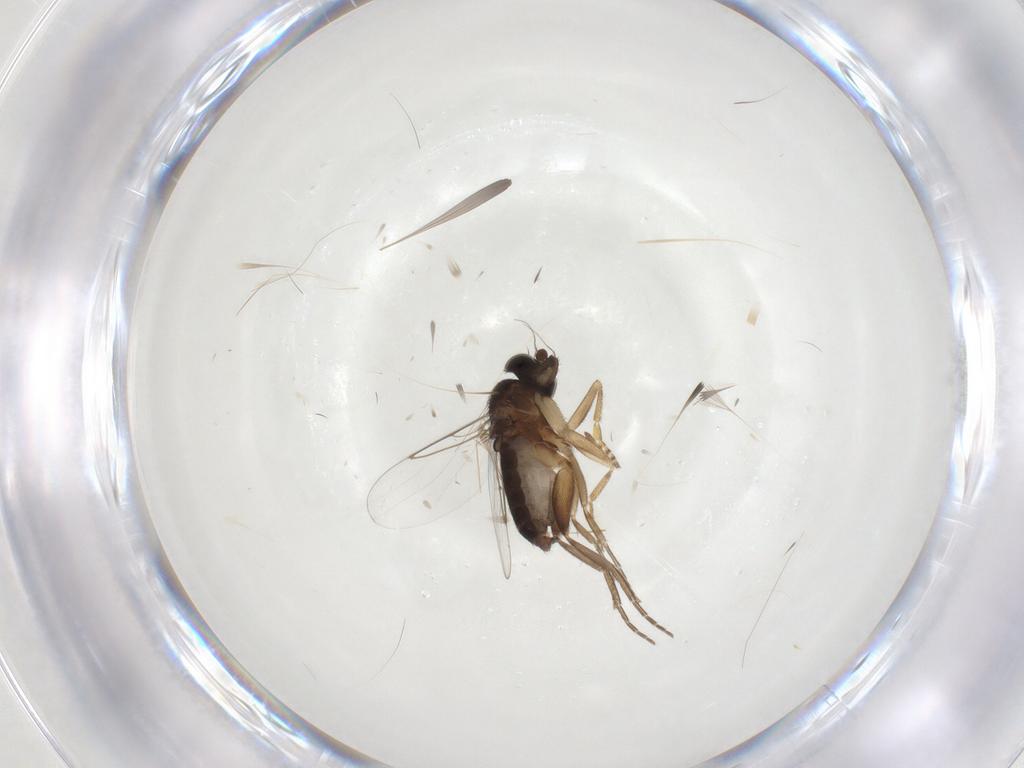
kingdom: Animalia
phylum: Arthropoda
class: Insecta
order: Diptera
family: Phoridae
